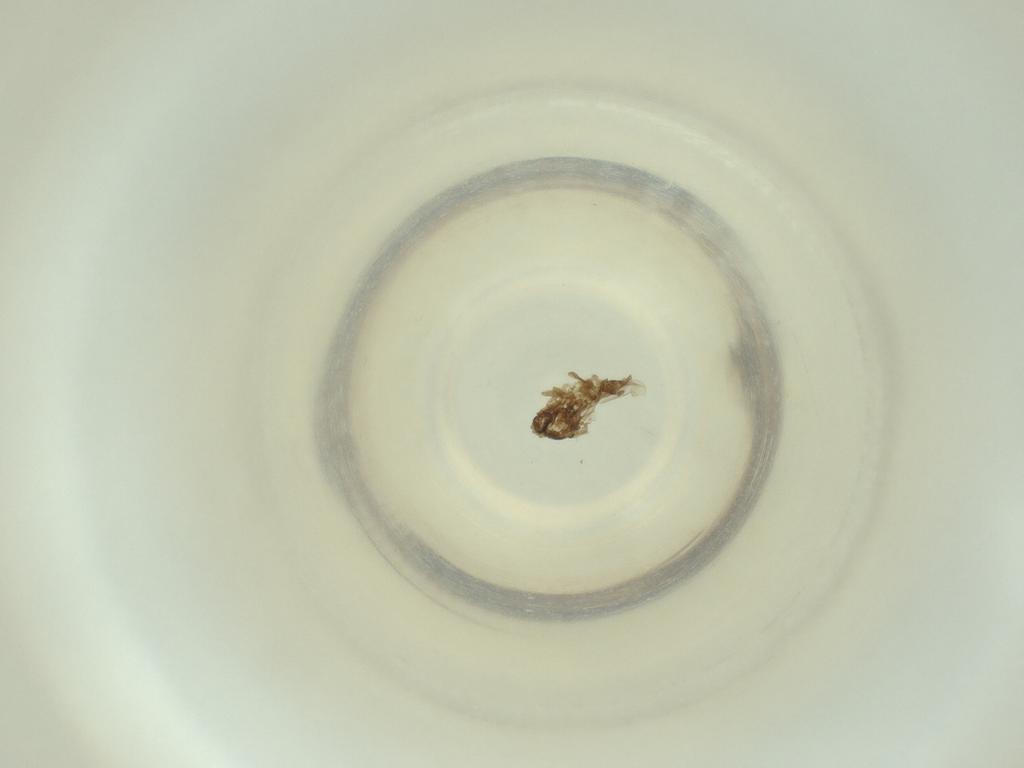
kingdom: Animalia
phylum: Arthropoda
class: Insecta
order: Diptera
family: Cecidomyiidae
